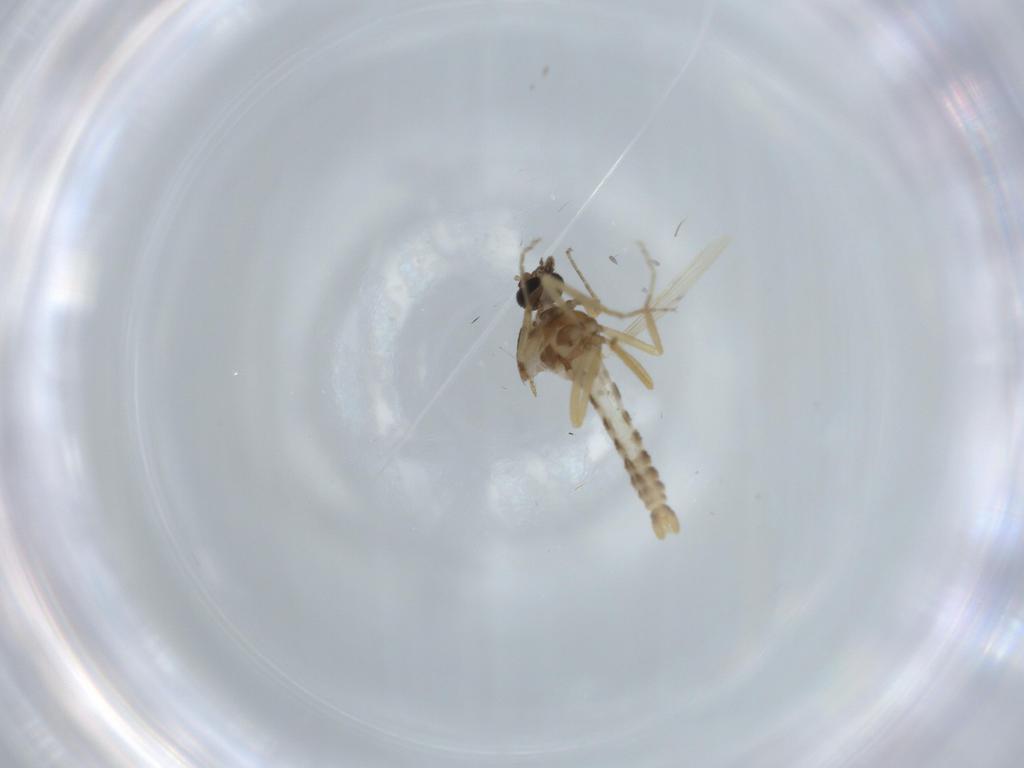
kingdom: Animalia
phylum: Arthropoda
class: Insecta
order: Diptera
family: Ceratopogonidae
